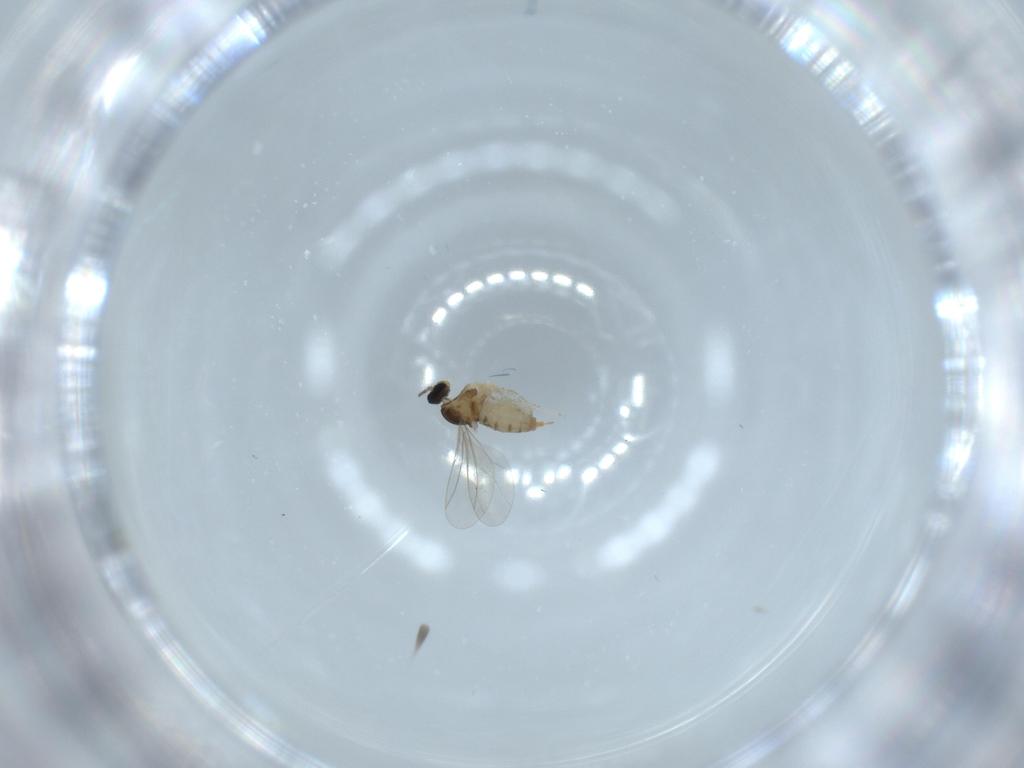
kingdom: Animalia
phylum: Arthropoda
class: Insecta
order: Diptera
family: Cecidomyiidae
